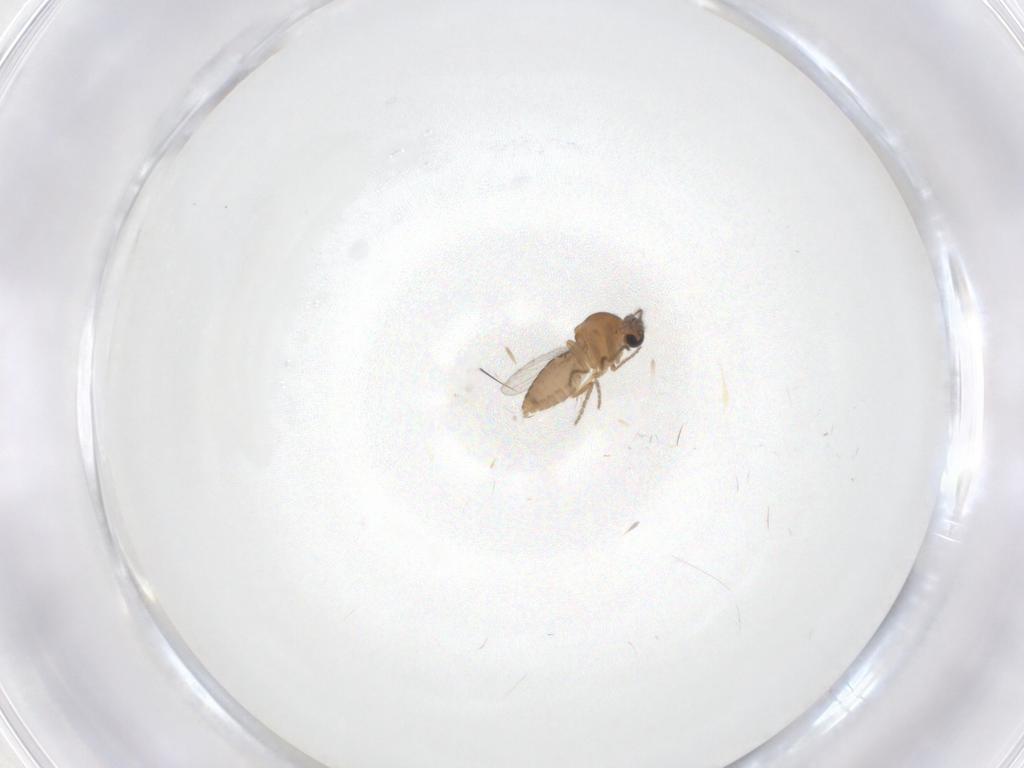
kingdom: Animalia
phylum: Arthropoda
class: Insecta
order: Diptera
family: Ceratopogonidae
